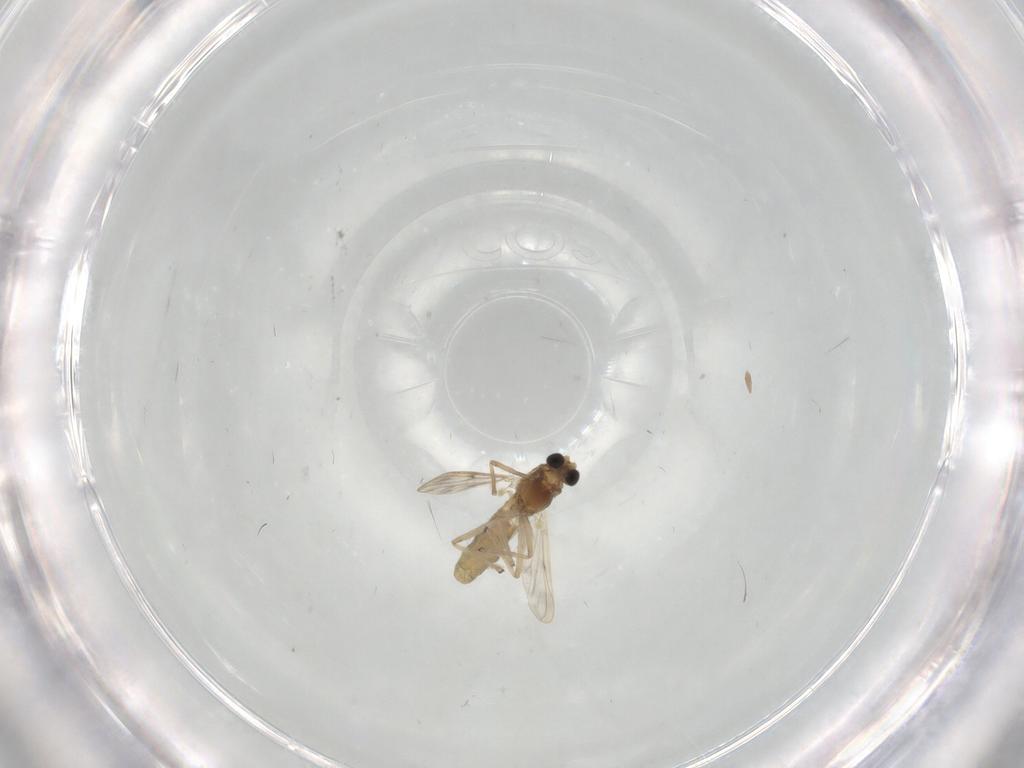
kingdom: Animalia
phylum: Arthropoda
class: Insecta
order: Diptera
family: Chironomidae
